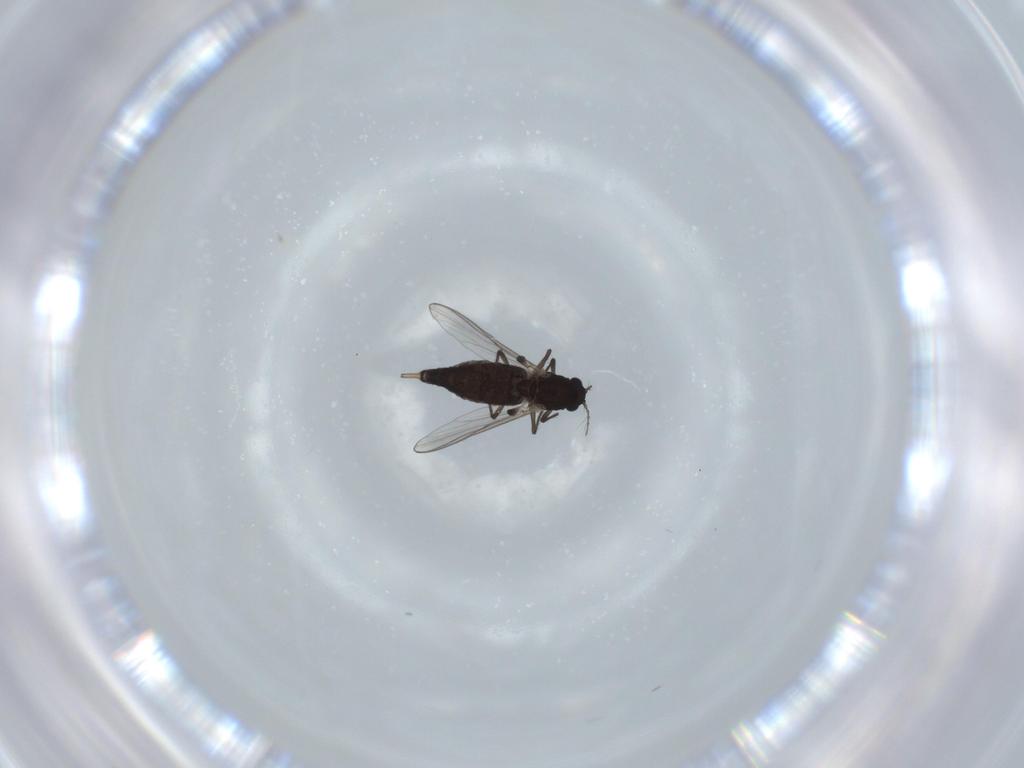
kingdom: Animalia
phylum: Arthropoda
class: Insecta
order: Diptera
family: Chironomidae
